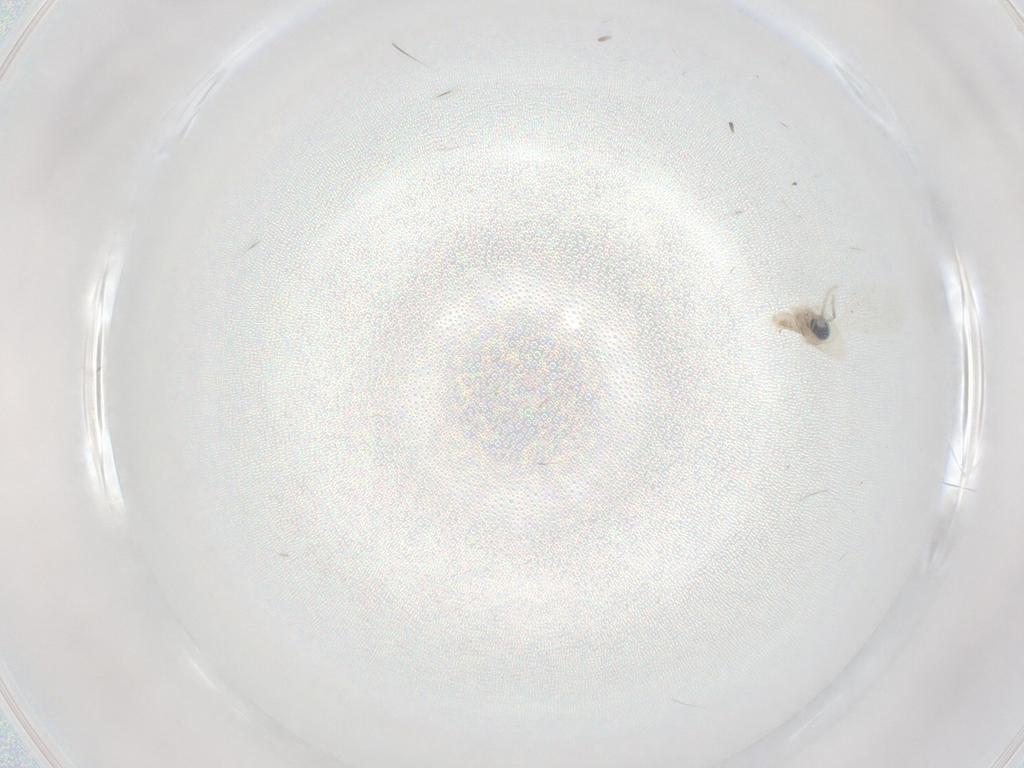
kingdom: Animalia
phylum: Arthropoda
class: Insecta
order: Diptera
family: Cecidomyiidae
